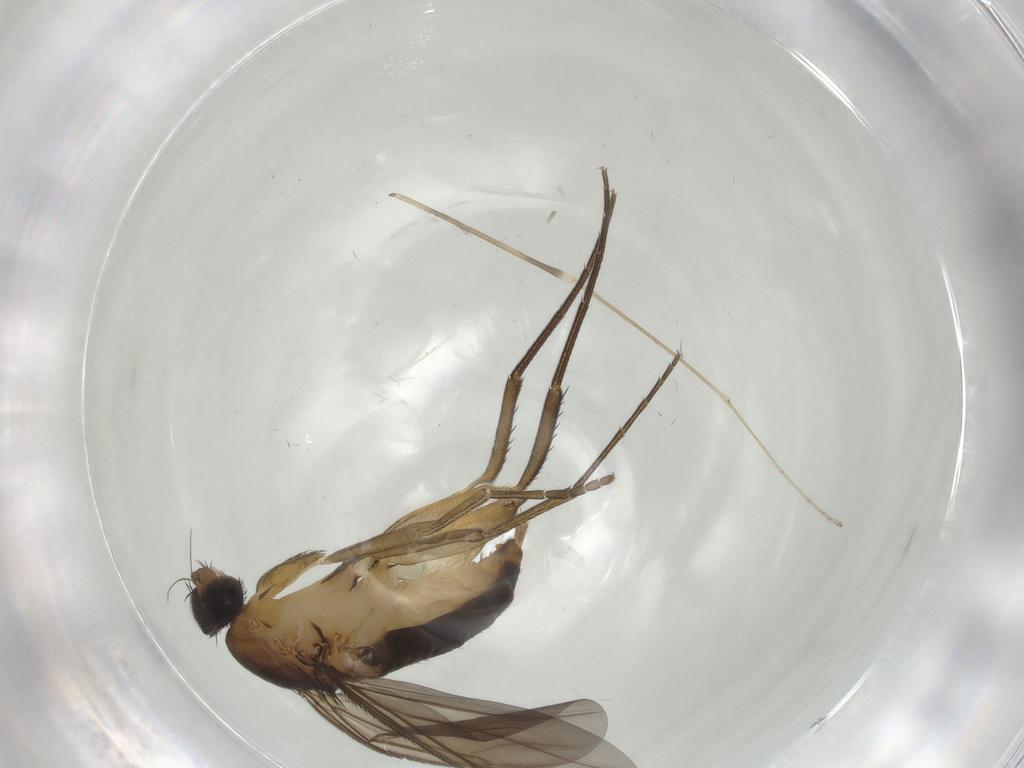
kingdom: Animalia
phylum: Arthropoda
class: Insecta
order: Diptera
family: Phoridae
